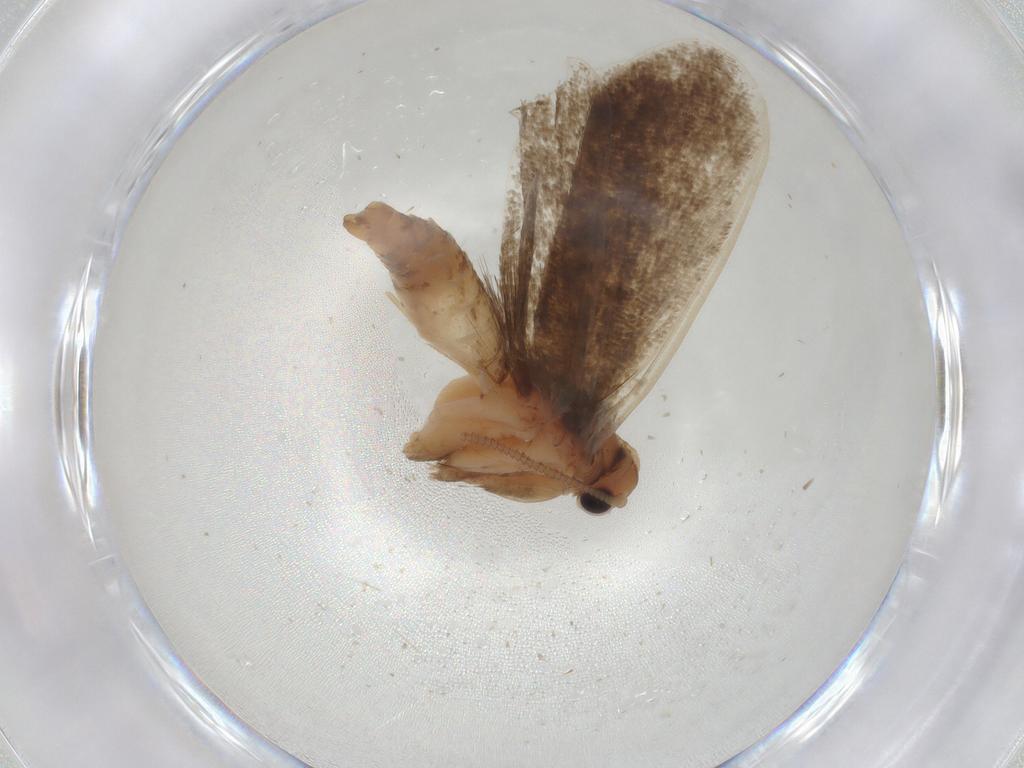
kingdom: Animalia
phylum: Arthropoda
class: Insecta
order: Lepidoptera
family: Tineidae
